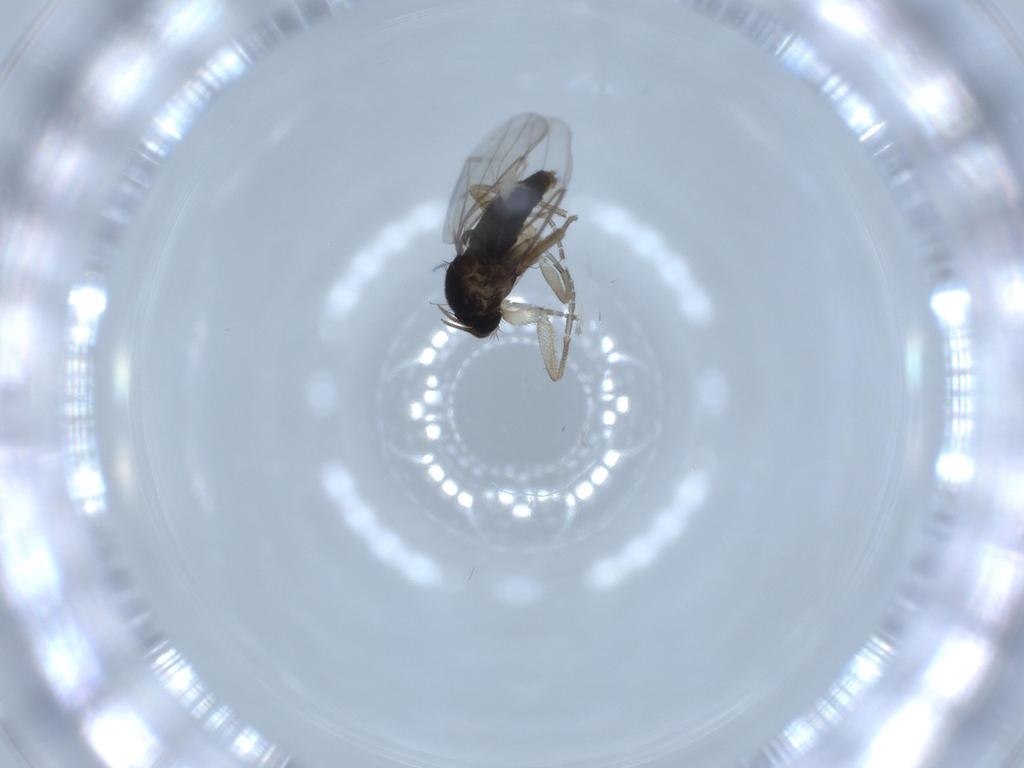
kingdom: Animalia
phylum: Arthropoda
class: Insecta
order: Diptera
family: Phoridae
